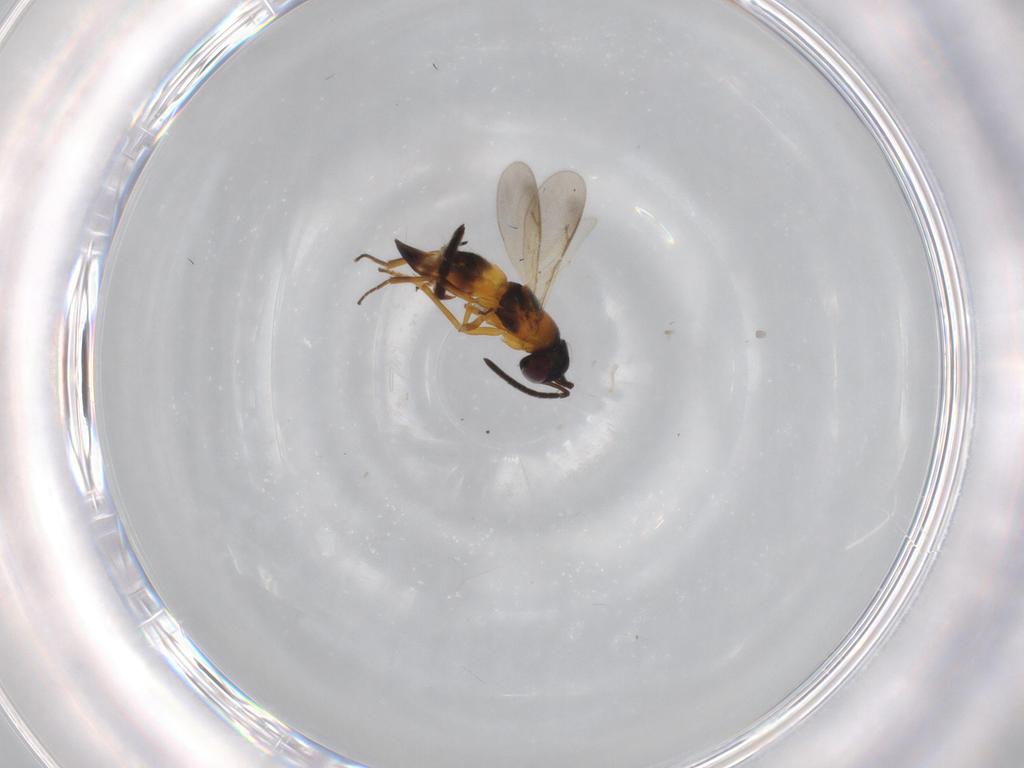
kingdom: Animalia
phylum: Arthropoda
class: Insecta
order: Hymenoptera
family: Encyrtidae
